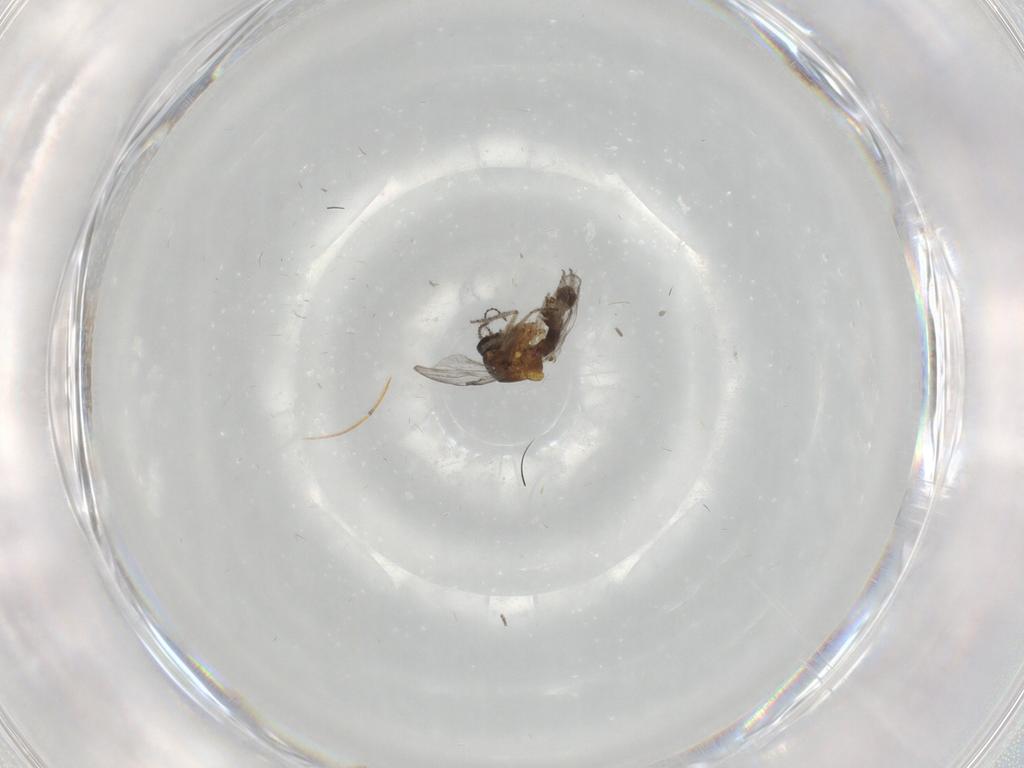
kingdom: Animalia
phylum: Arthropoda
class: Insecta
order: Diptera
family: Ceratopogonidae
